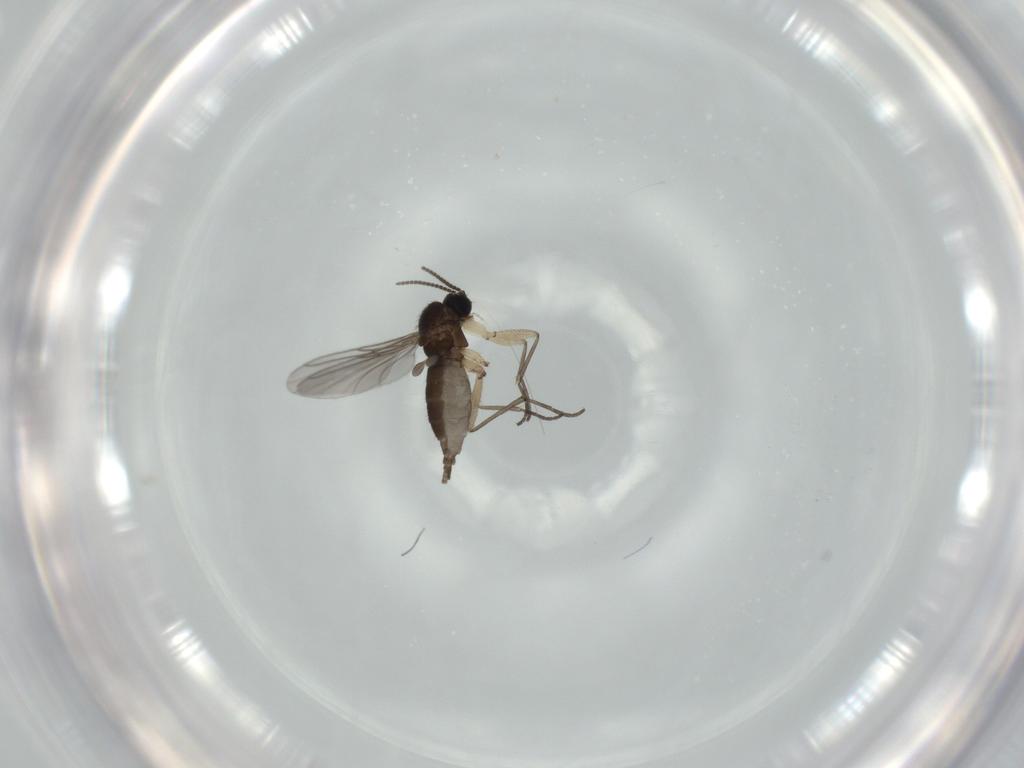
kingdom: Animalia
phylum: Arthropoda
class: Insecta
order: Diptera
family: Sciaridae
